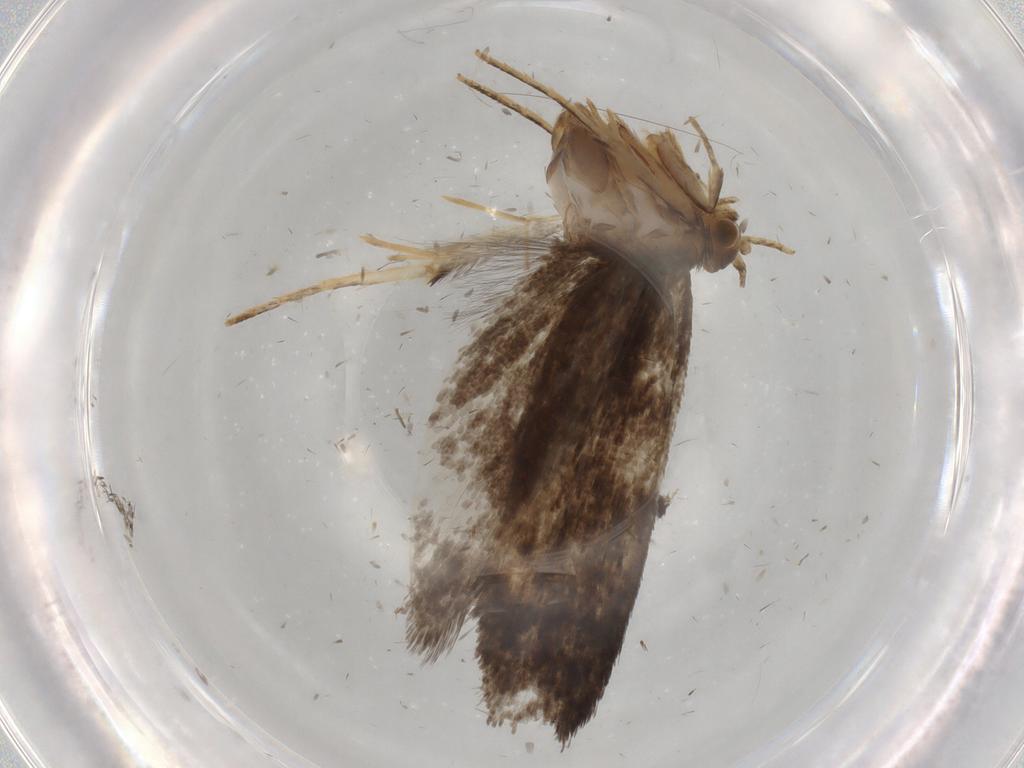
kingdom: Animalia
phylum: Arthropoda
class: Insecta
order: Lepidoptera
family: Tineidae
